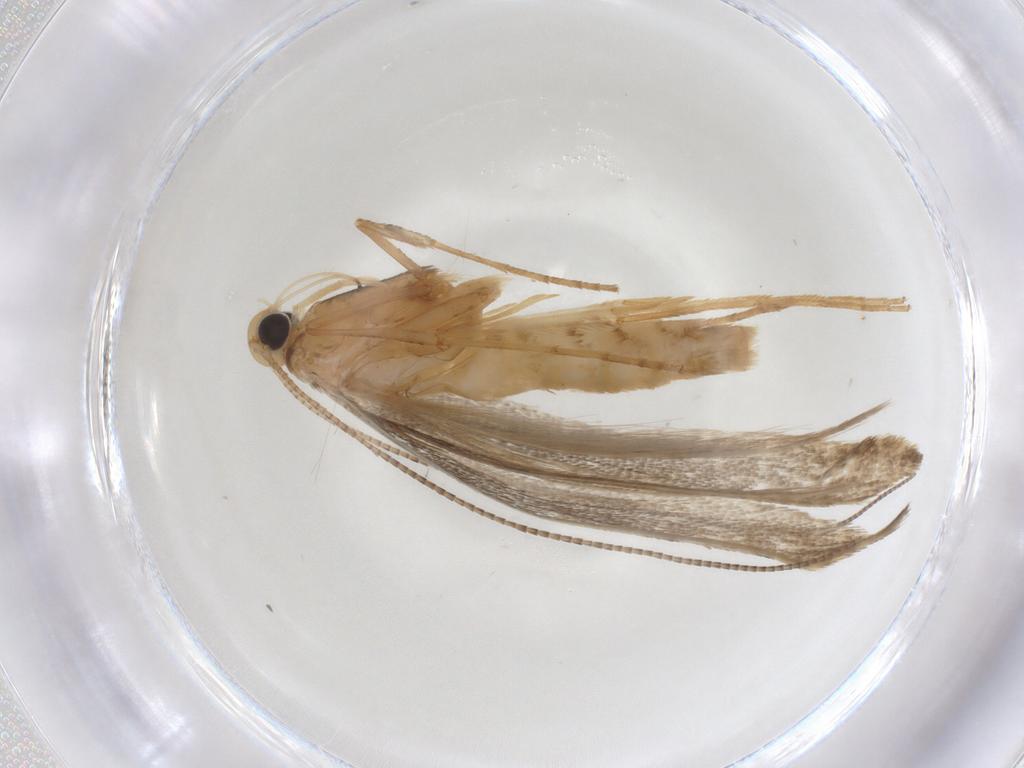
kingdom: Animalia
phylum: Arthropoda
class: Insecta
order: Lepidoptera
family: Gracillariidae
